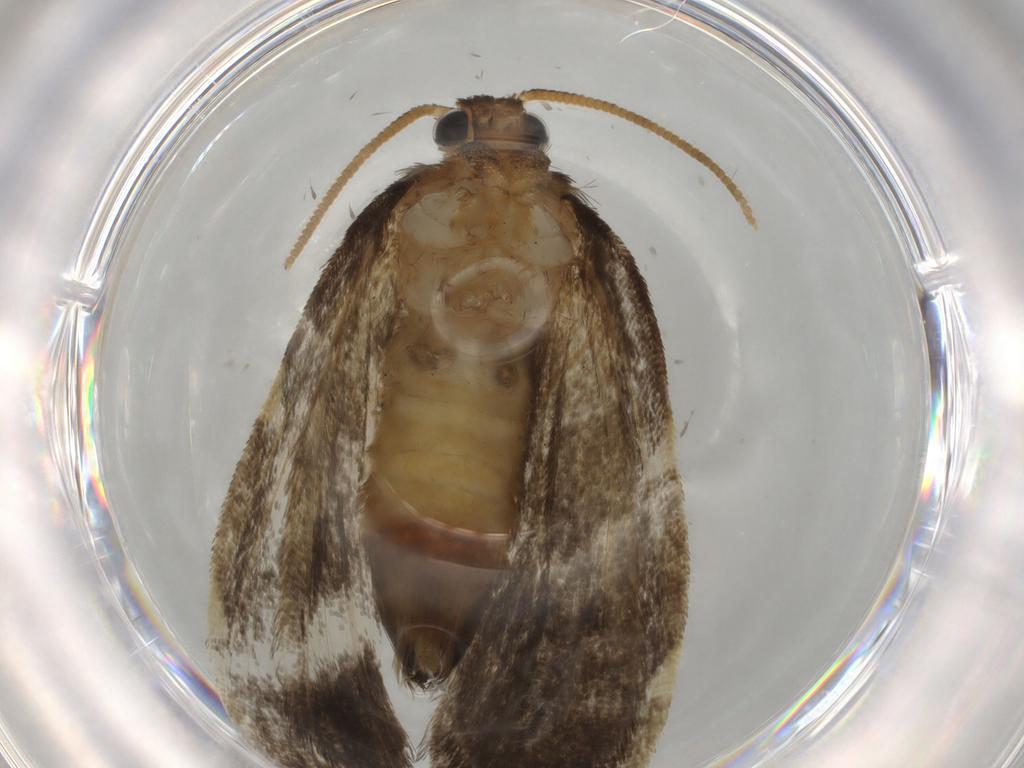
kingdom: Animalia
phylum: Arthropoda
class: Insecta
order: Lepidoptera
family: Psychidae
